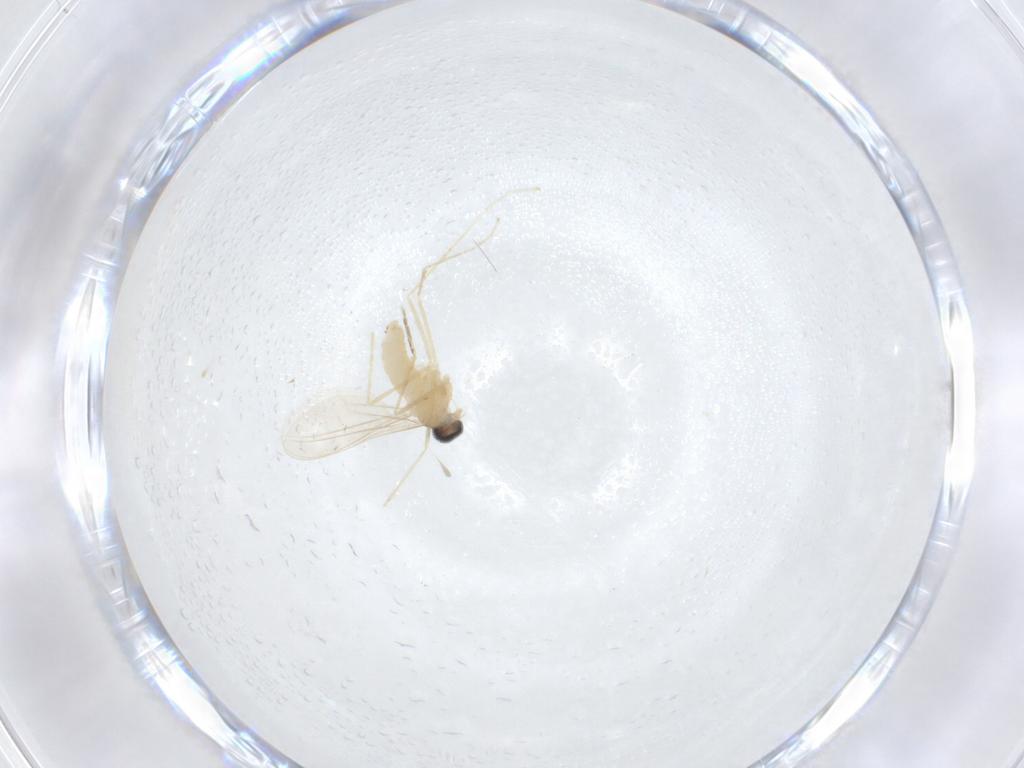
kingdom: Animalia
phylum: Arthropoda
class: Insecta
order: Diptera
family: Cecidomyiidae
